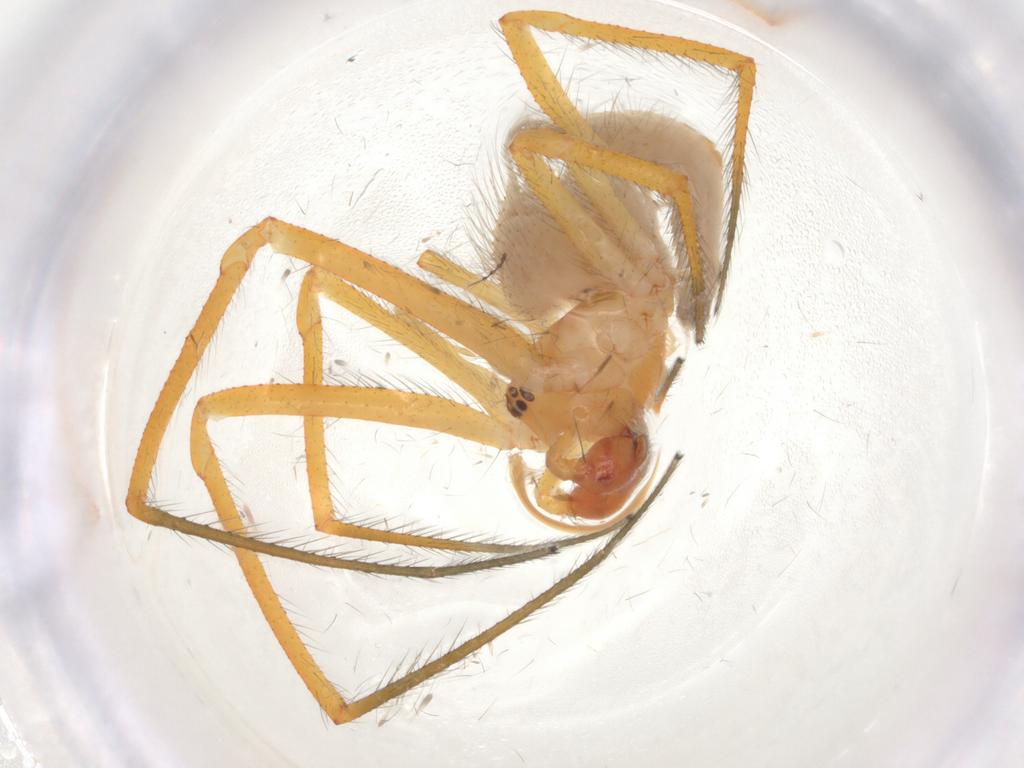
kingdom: Animalia
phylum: Arthropoda
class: Arachnida
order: Araneae
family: Theridiidae
